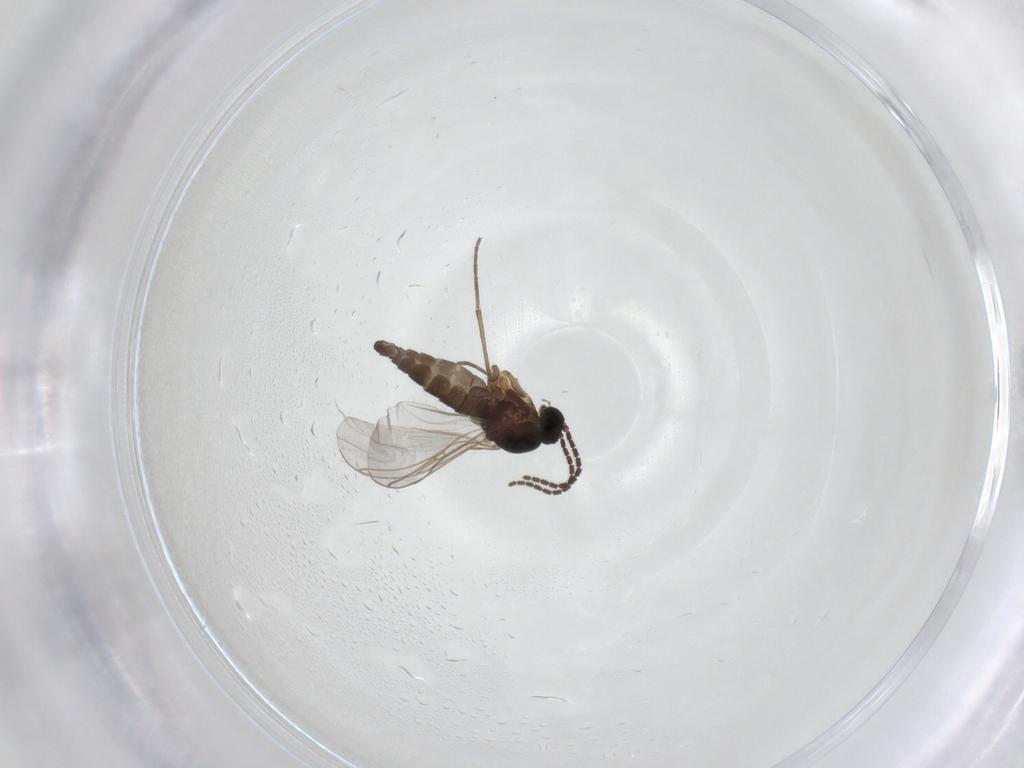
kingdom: Animalia
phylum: Arthropoda
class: Insecta
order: Diptera
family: Sciaridae
